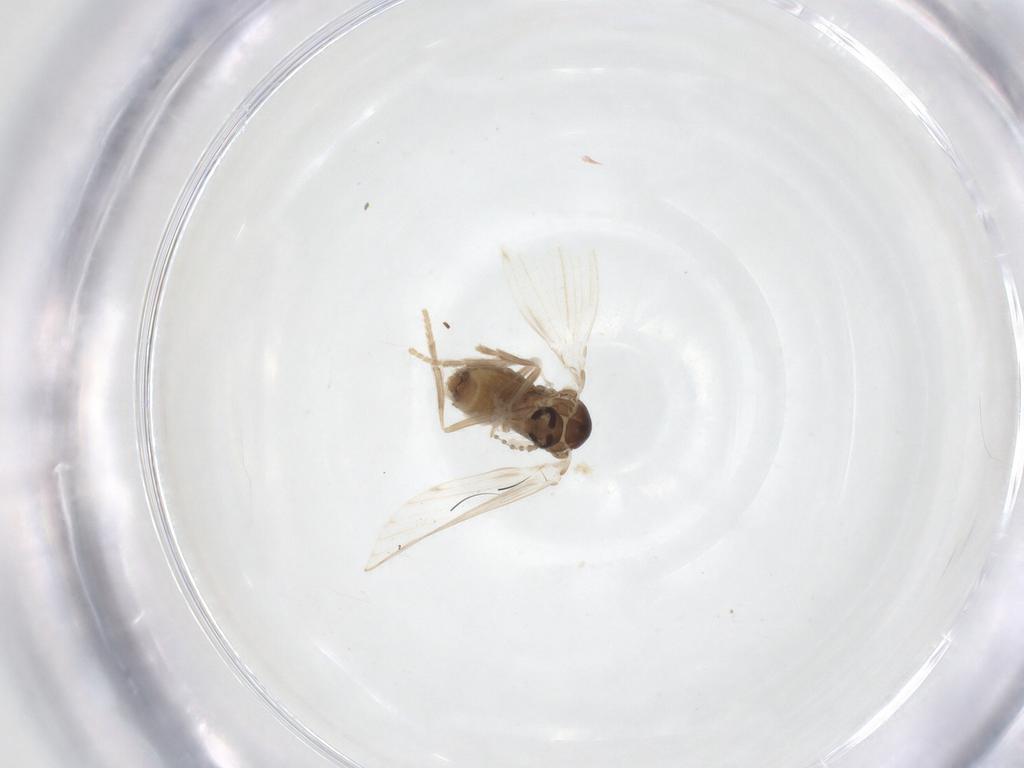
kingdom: Animalia
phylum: Arthropoda
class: Insecta
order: Diptera
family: Psychodidae
